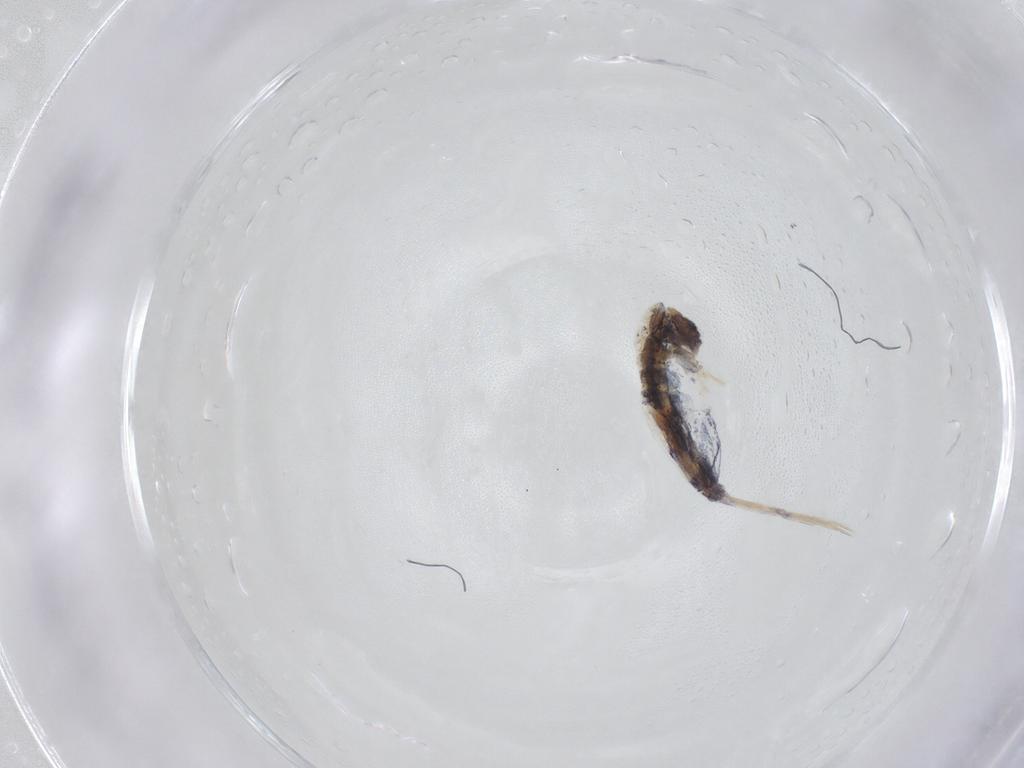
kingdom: Animalia
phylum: Arthropoda
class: Collembola
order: Entomobryomorpha
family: Entomobryidae
